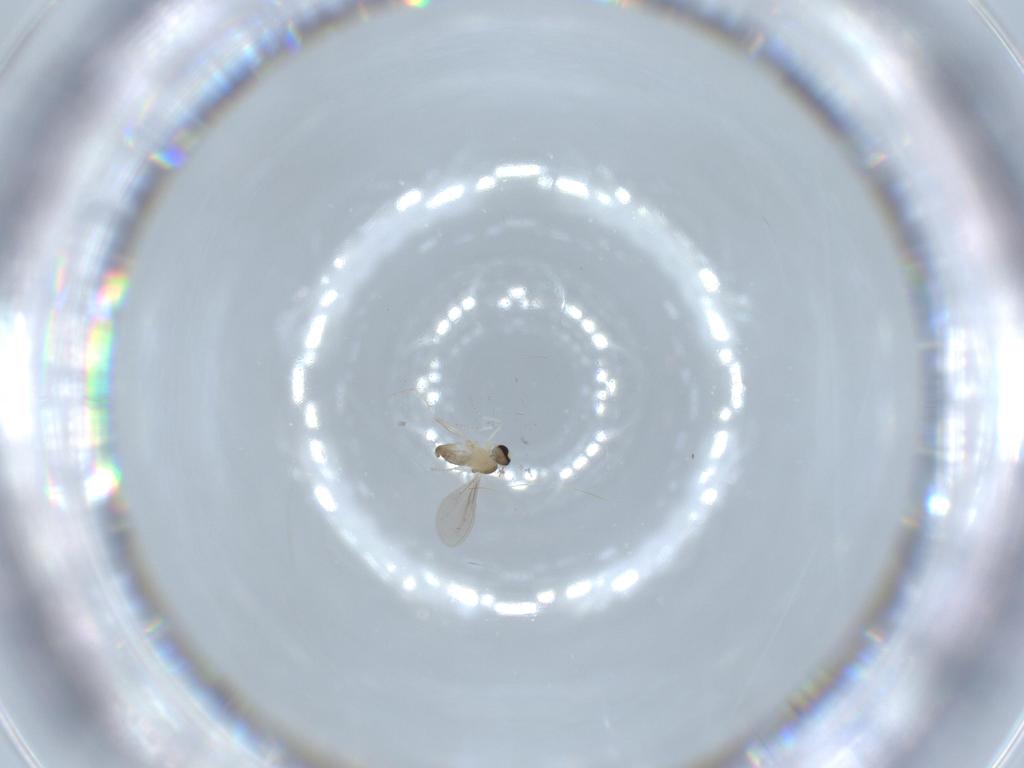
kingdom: Animalia
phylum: Arthropoda
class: Insecta
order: Diptera
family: Cecidomyiidae
